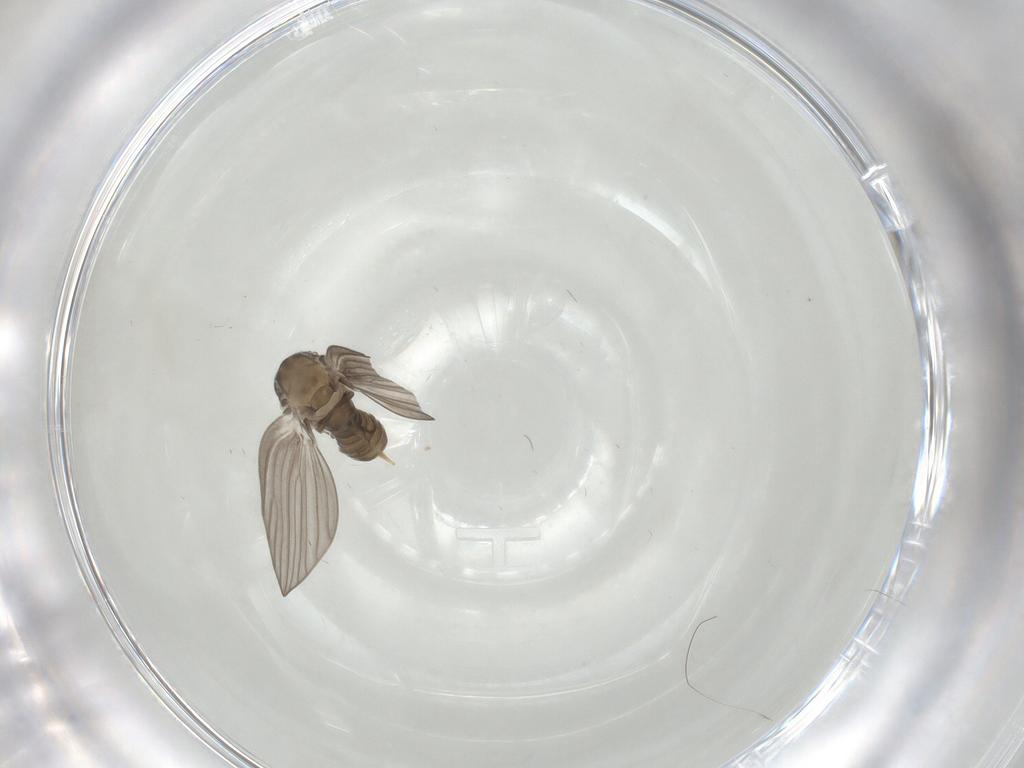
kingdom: Animalia
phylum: Arthropoda
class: Insecta
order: Diptera
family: Psychodidae
